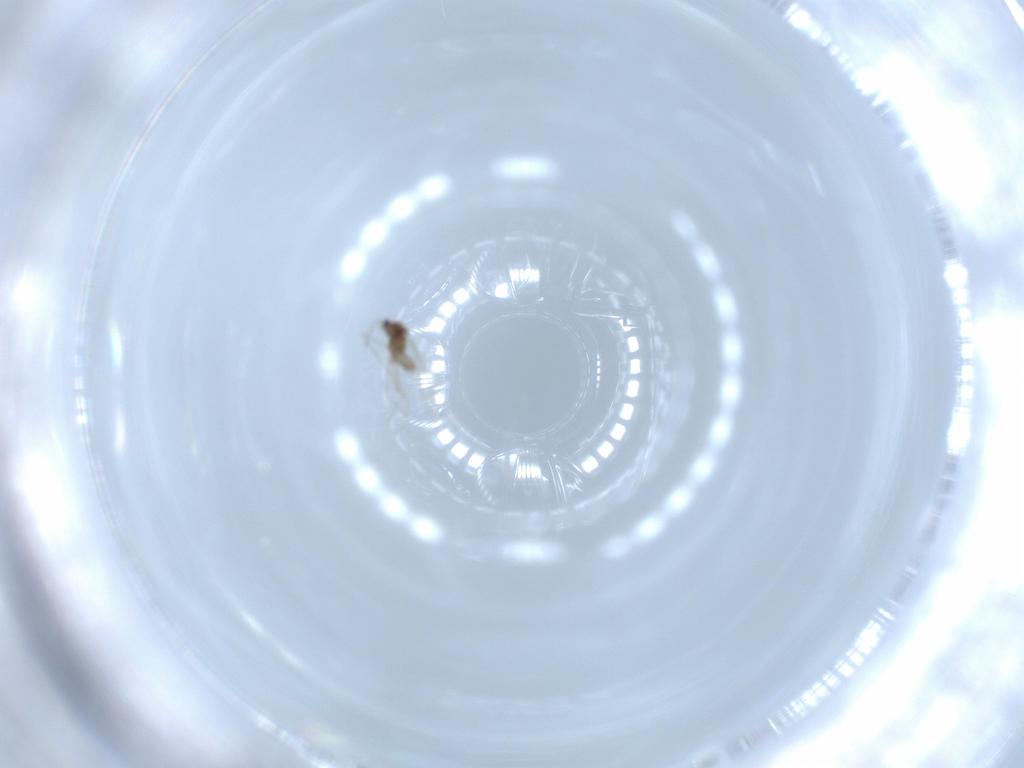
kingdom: Animalia
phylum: Arthropoda
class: Insecta
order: Diptera
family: Cecidomyiidae
